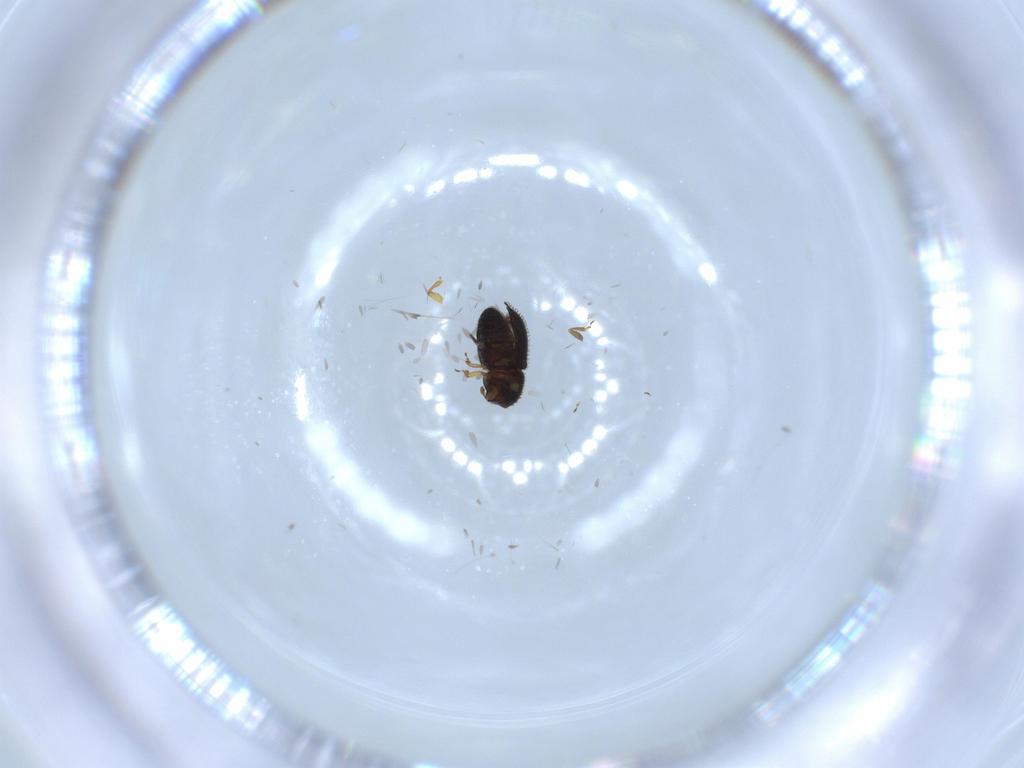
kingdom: Animalia
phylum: Arthropoda
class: Insecta
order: Coleoptera
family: Curculionidae
